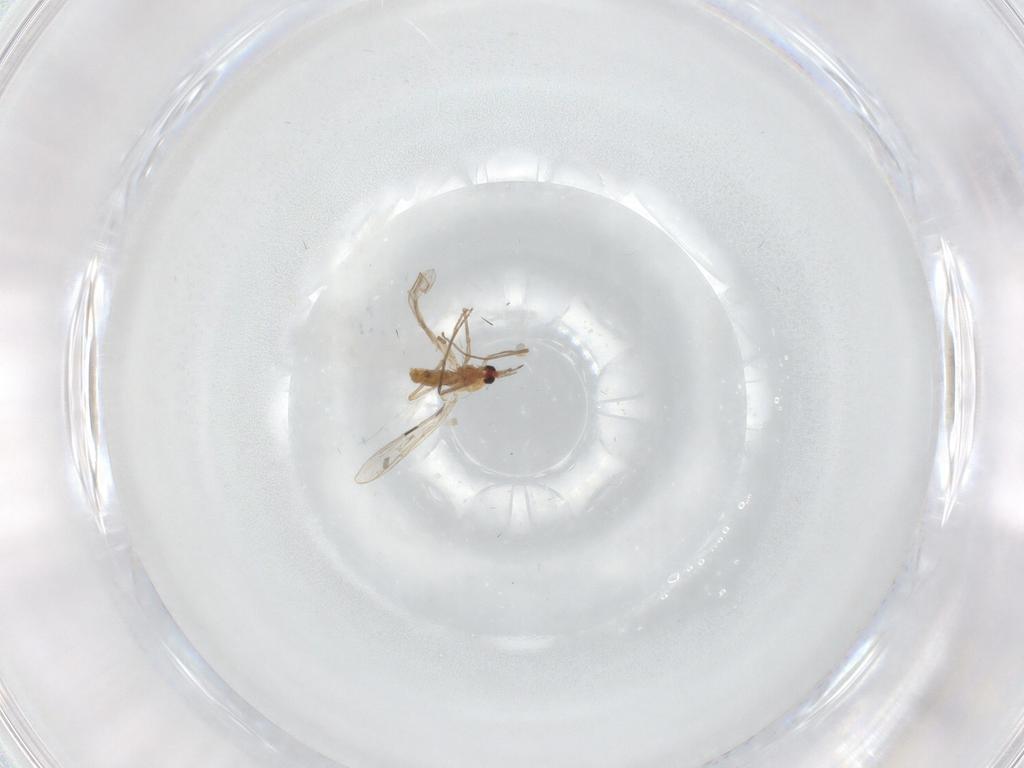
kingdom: Animalia
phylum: Arthropoda
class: Insecta
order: Diptera
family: Chironomidae
